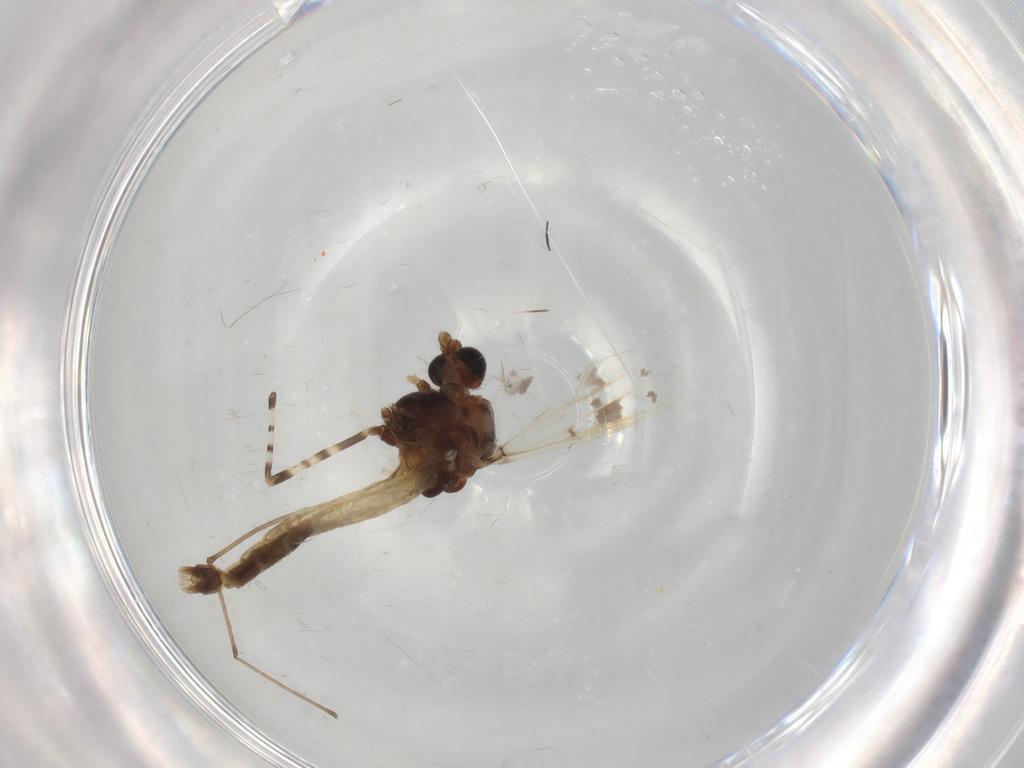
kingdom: Animalia
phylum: Arthropoda
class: Insecta
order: Diptera
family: Chironomidae
